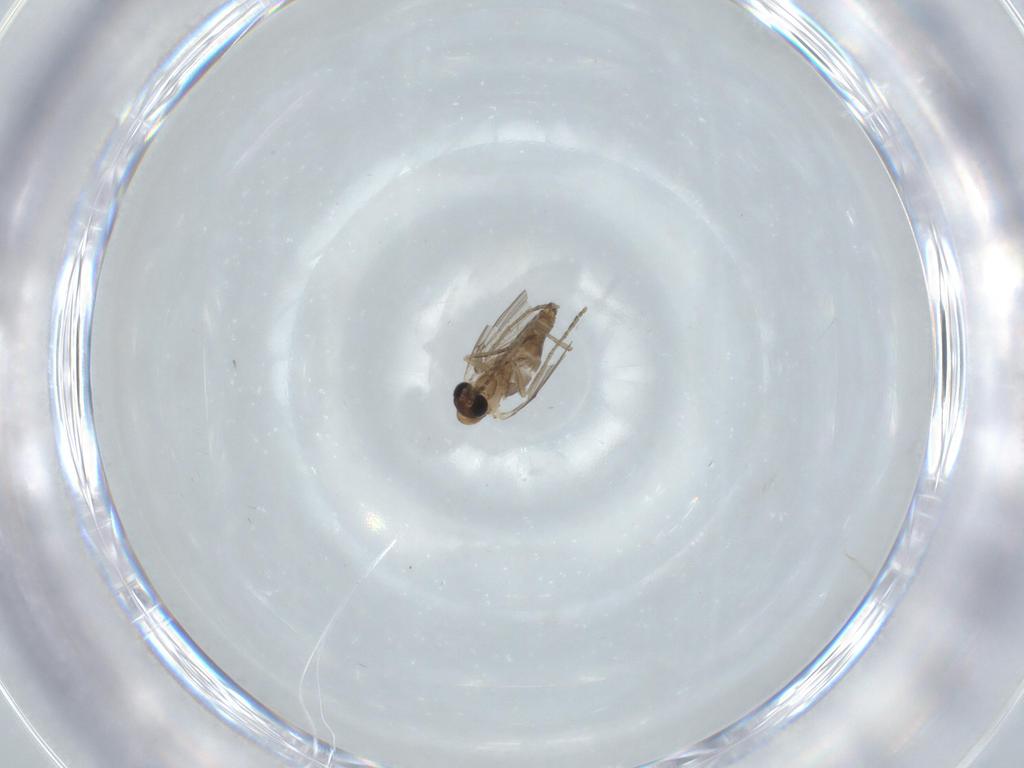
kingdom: Animalia
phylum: Arthropoda
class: Insecta
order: Diptera
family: Psychodidae
